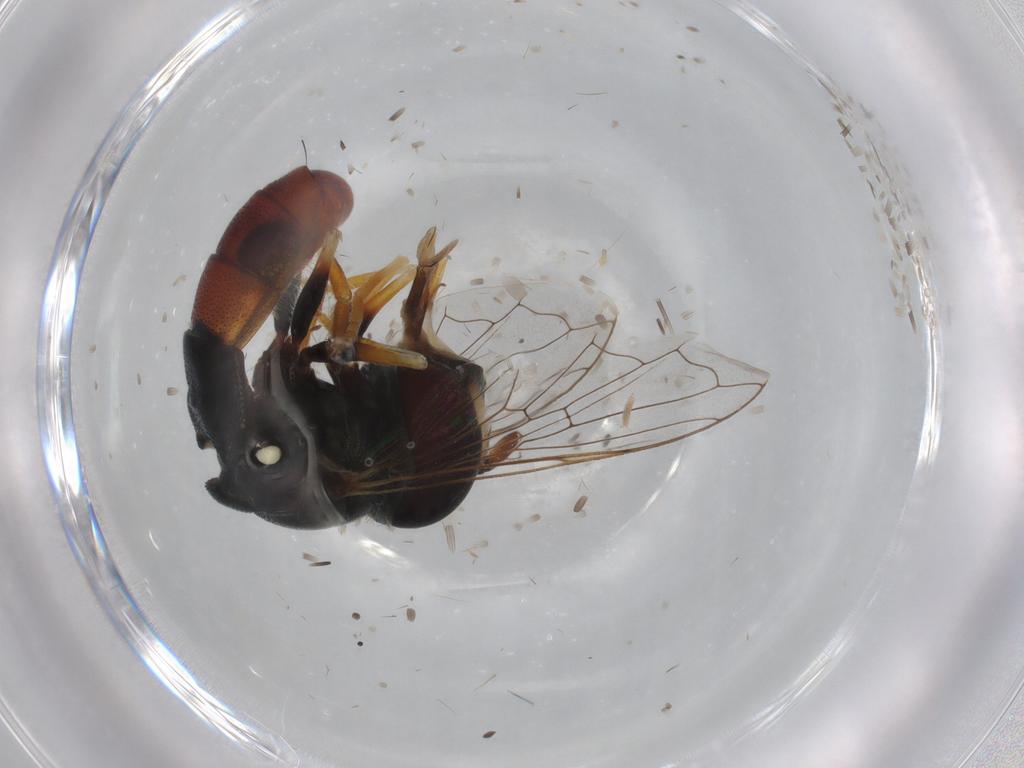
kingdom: Animalia
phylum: Arthropoda
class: Insecta
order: Diptera
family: Syrphidae
